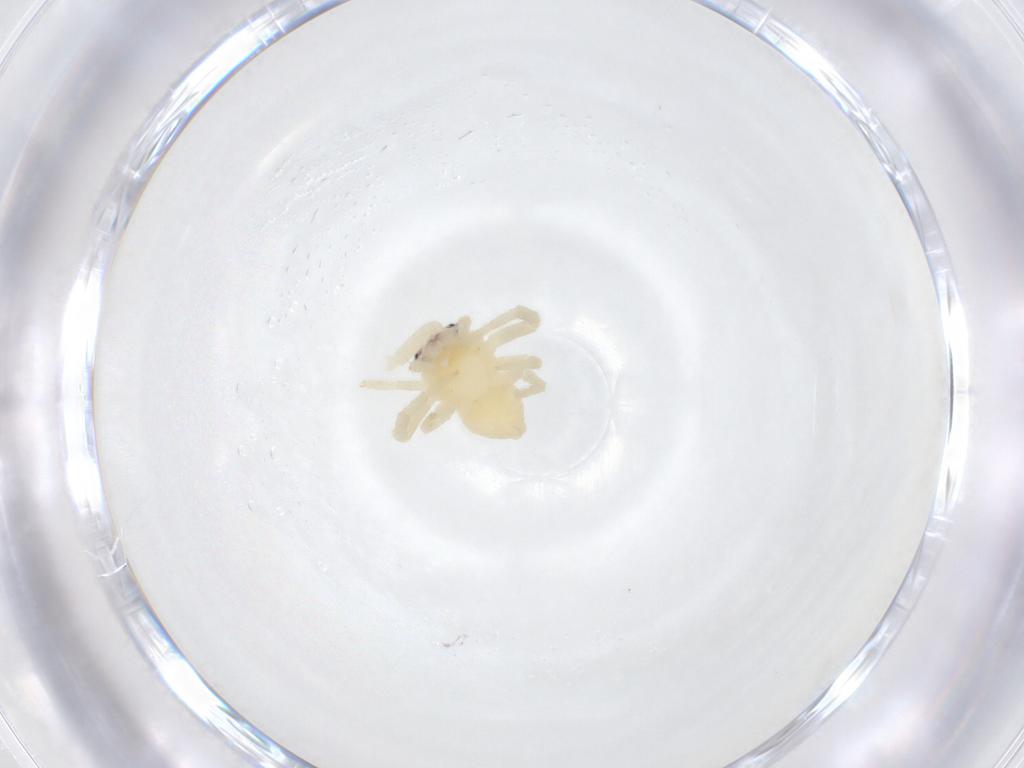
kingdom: Animalia
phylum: Arthropoda
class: Arachnida
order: Araneae
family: Thomisidae
